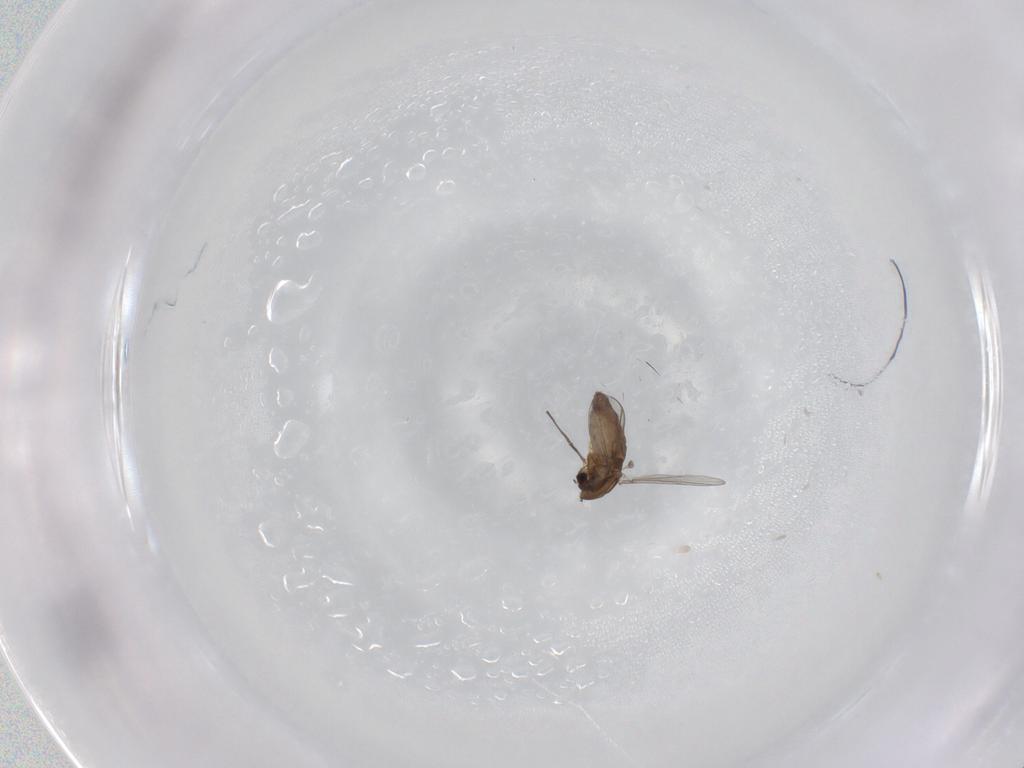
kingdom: Animalia
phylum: Arthropoda
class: Insecta
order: Diptera
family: Chironomidae
